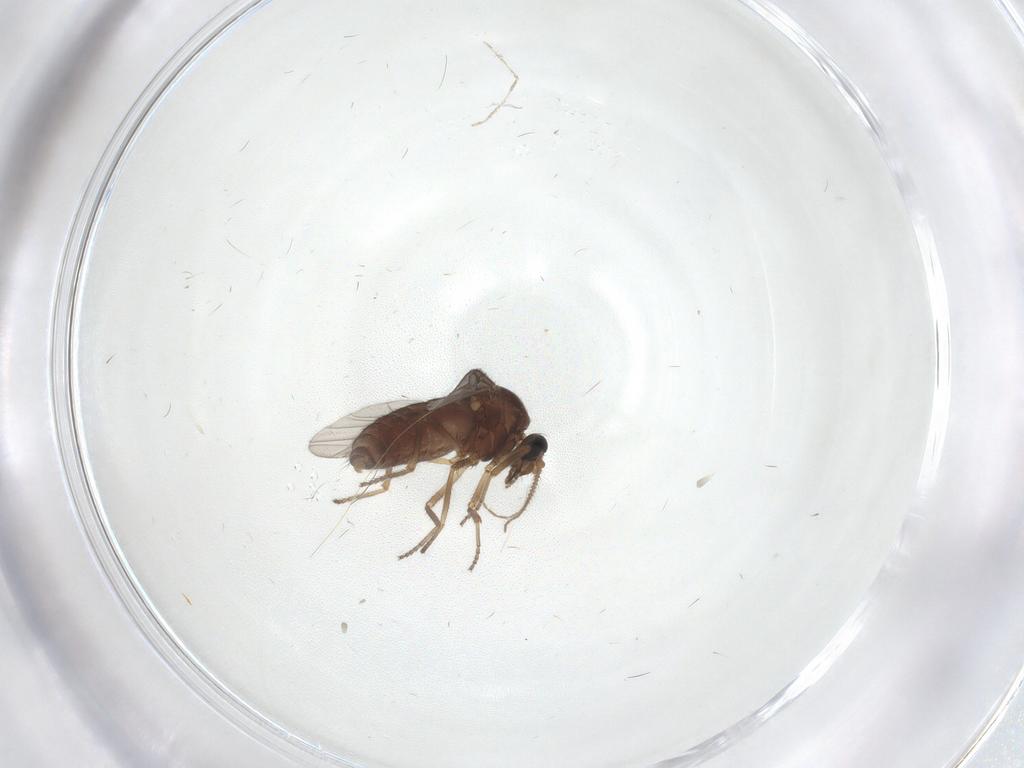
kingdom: Animalia
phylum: Arthropoda
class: Insecta
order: Diptera
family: Ceratopogonidae
